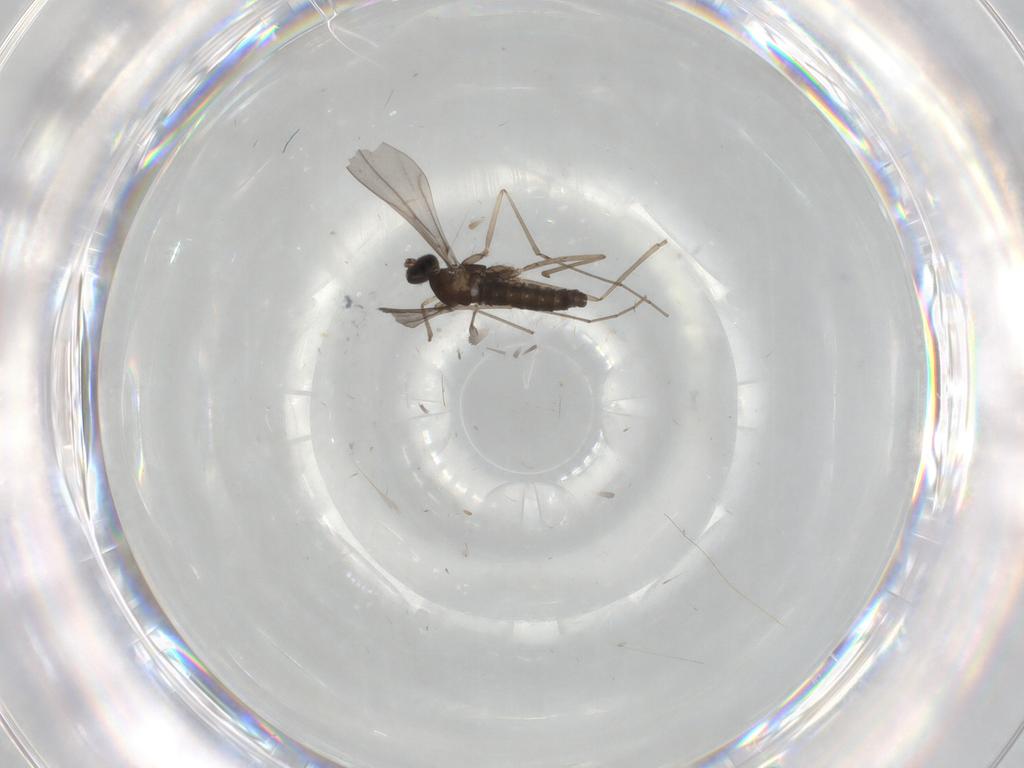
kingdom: Animalia
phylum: Arthropoda
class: Insecta
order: Diptera
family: Cecidomyiidae
